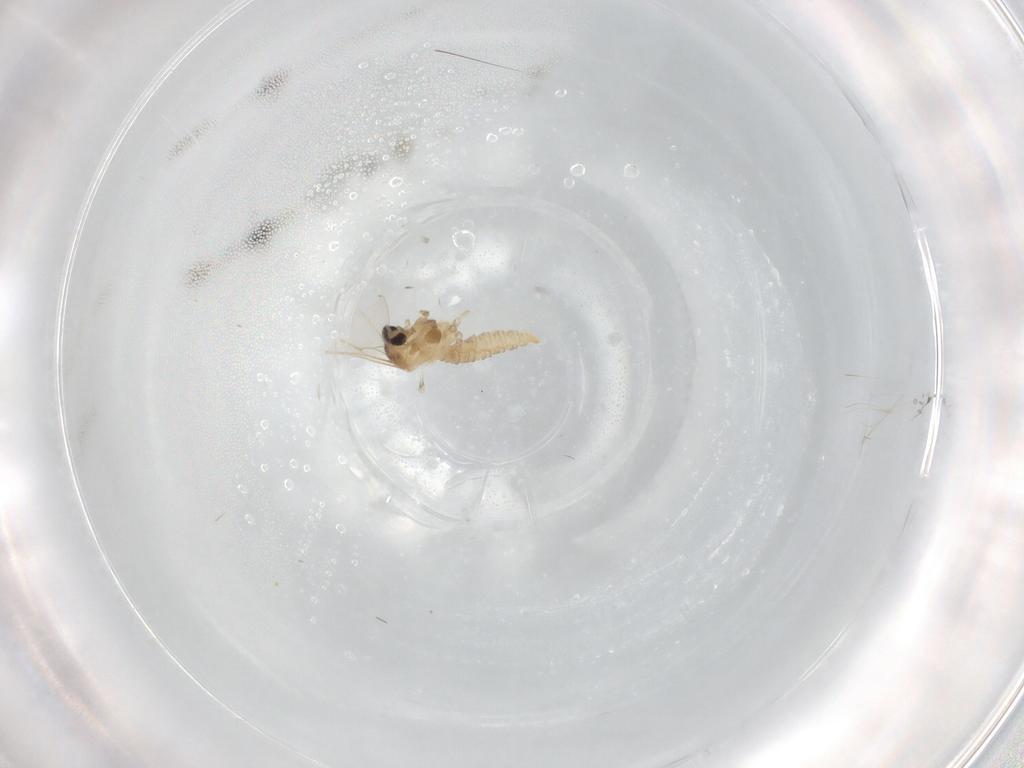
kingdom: Animalia
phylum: Arthropoda
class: Insecta
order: Diptera
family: Cecidomyiidae
